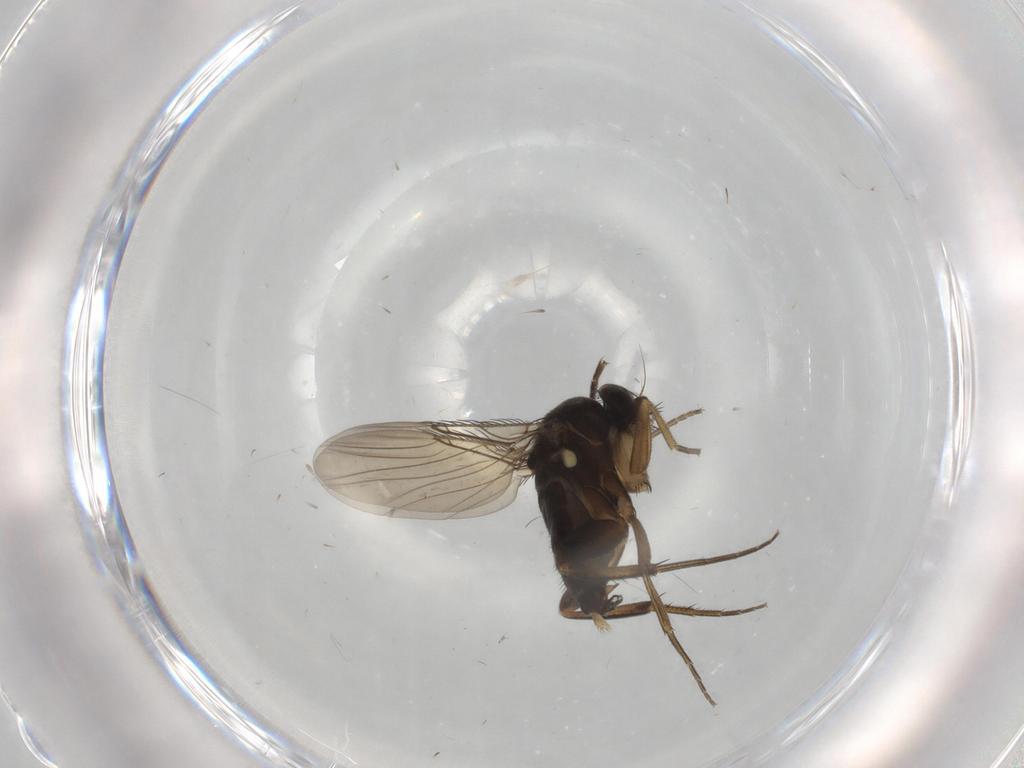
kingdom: Animalia
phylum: Arthropoda
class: Insecta
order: Diptera
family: Phoridae
